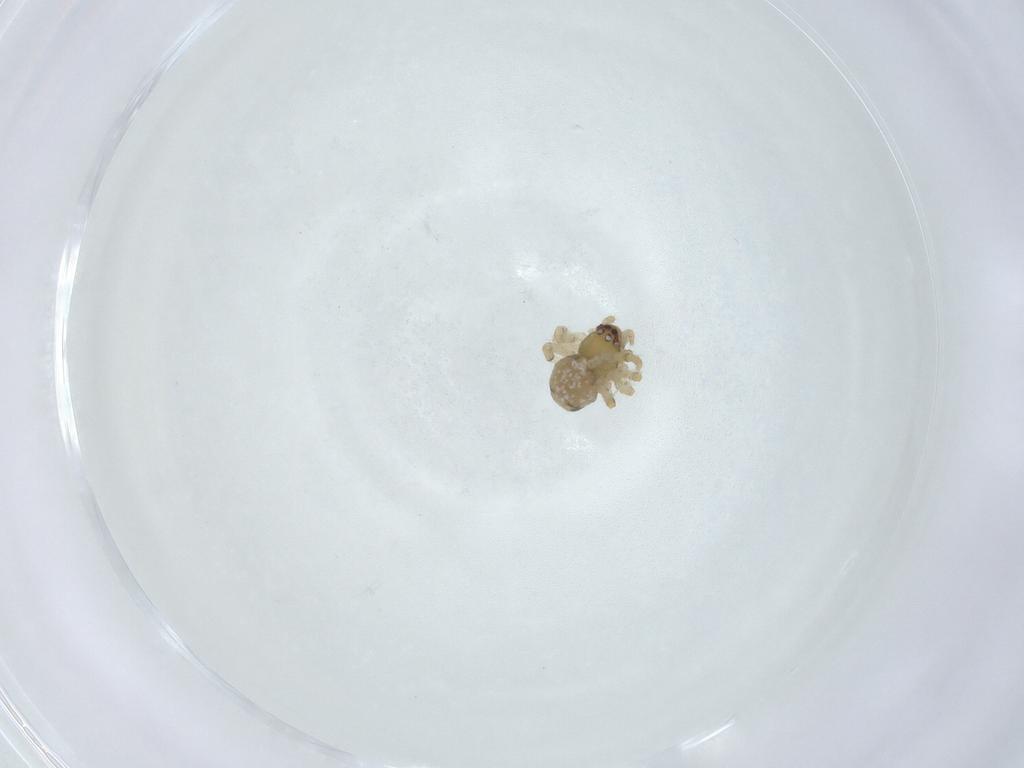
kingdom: Animalia
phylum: Arthropoda
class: Arachnida
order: Araneae
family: Theridiidae
